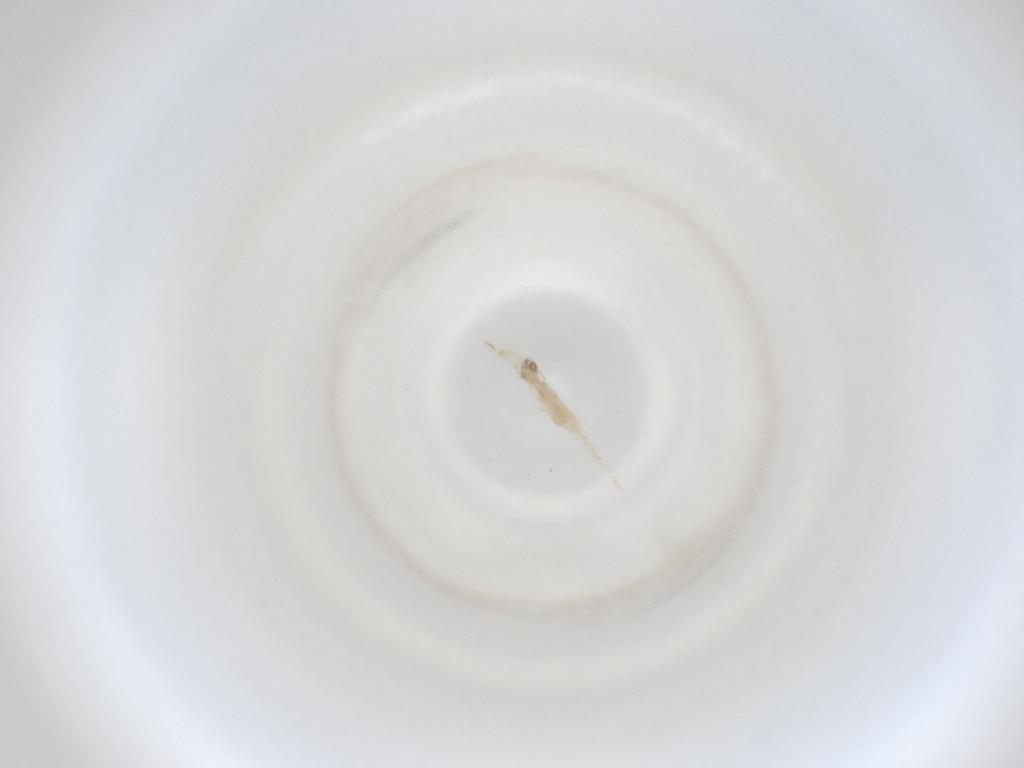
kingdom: Animalia
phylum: Arthropoda
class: Insecta
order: Diptera
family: Cecidomyiidae
